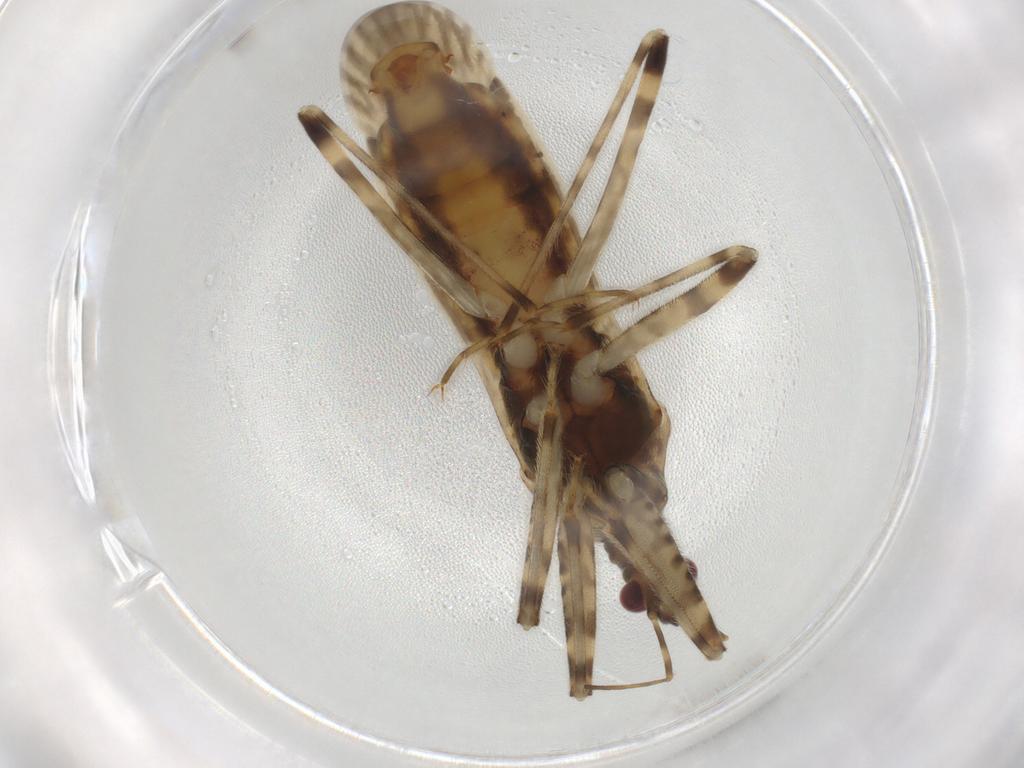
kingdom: Animalia
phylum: Arthropoda
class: Insecta
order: Hemiptera
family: Nabidae
